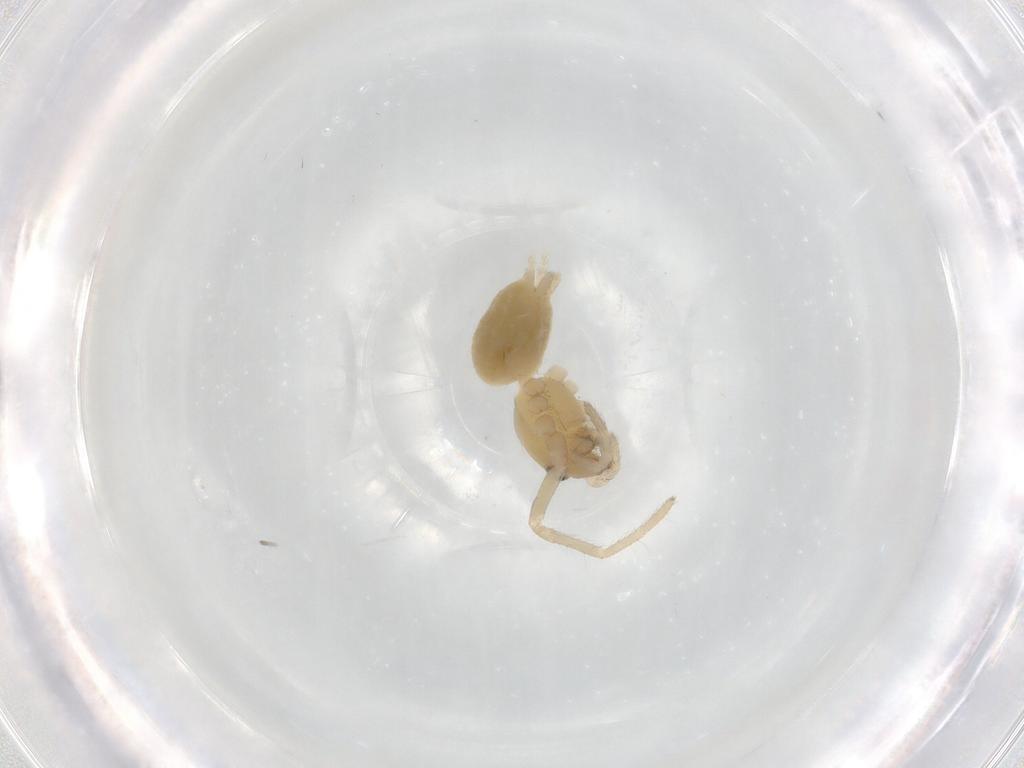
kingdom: Animalia
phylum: Arthropoda
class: Arachnida
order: Araneae
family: Cheiracanthiidae
